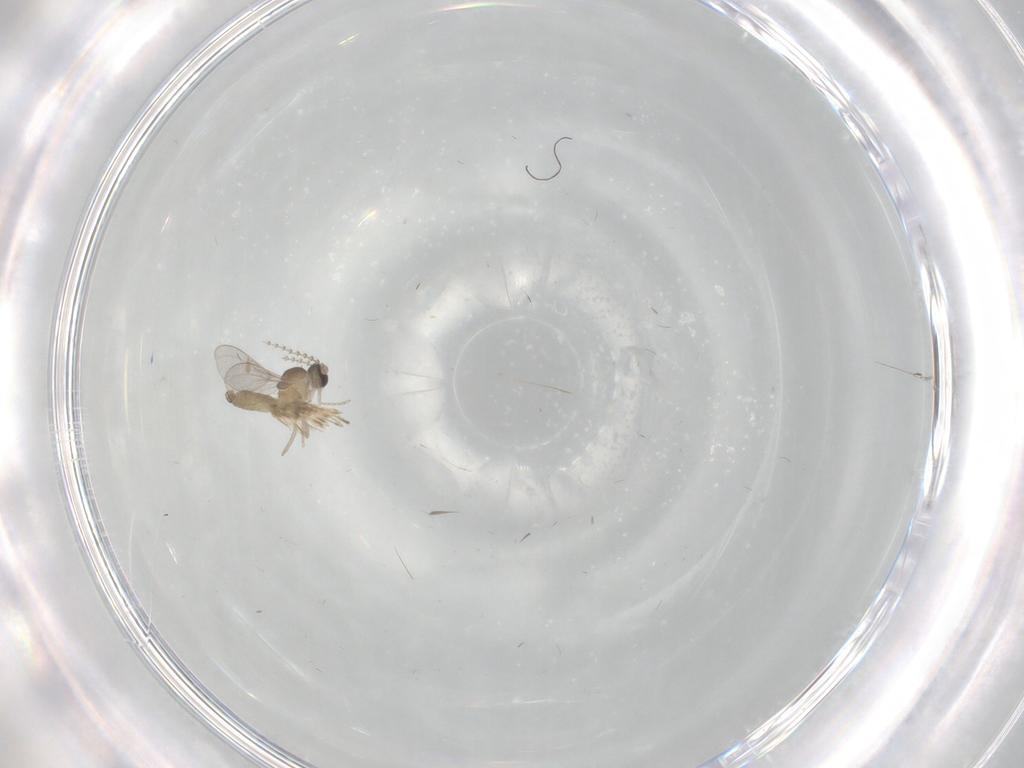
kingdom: Animalia
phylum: Arthropoda
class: Insecta
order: Diptera
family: Cecidomyiidae
